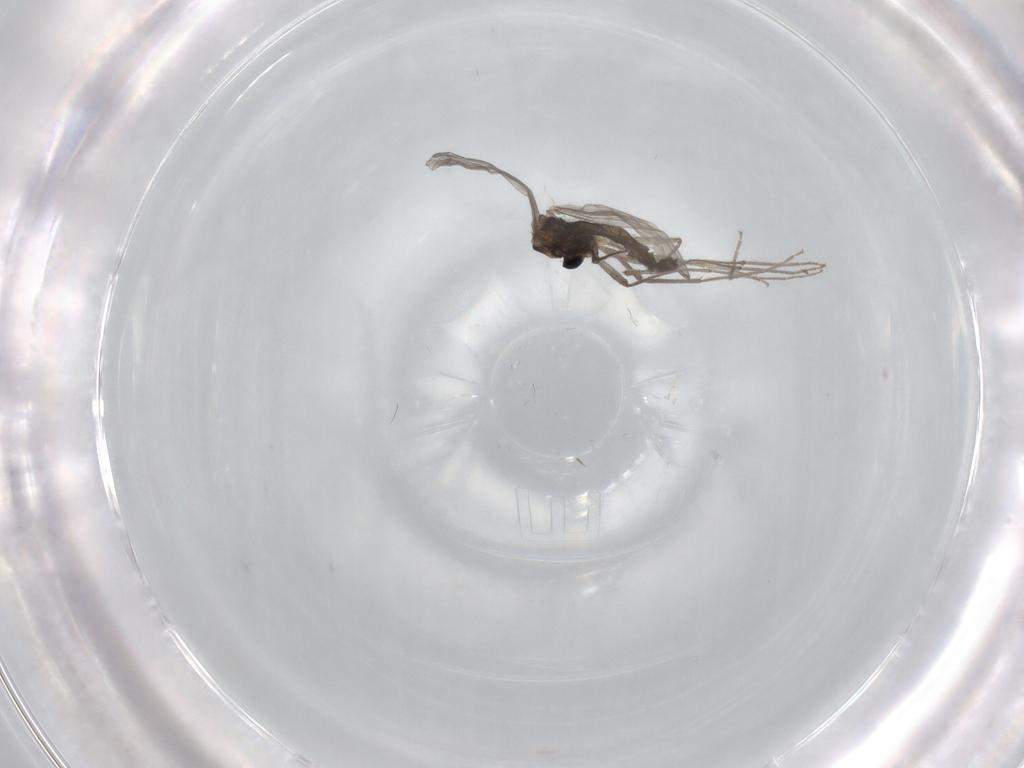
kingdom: Animalia
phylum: Arthropoda
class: Insecta
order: Diptera
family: Chironomidae
